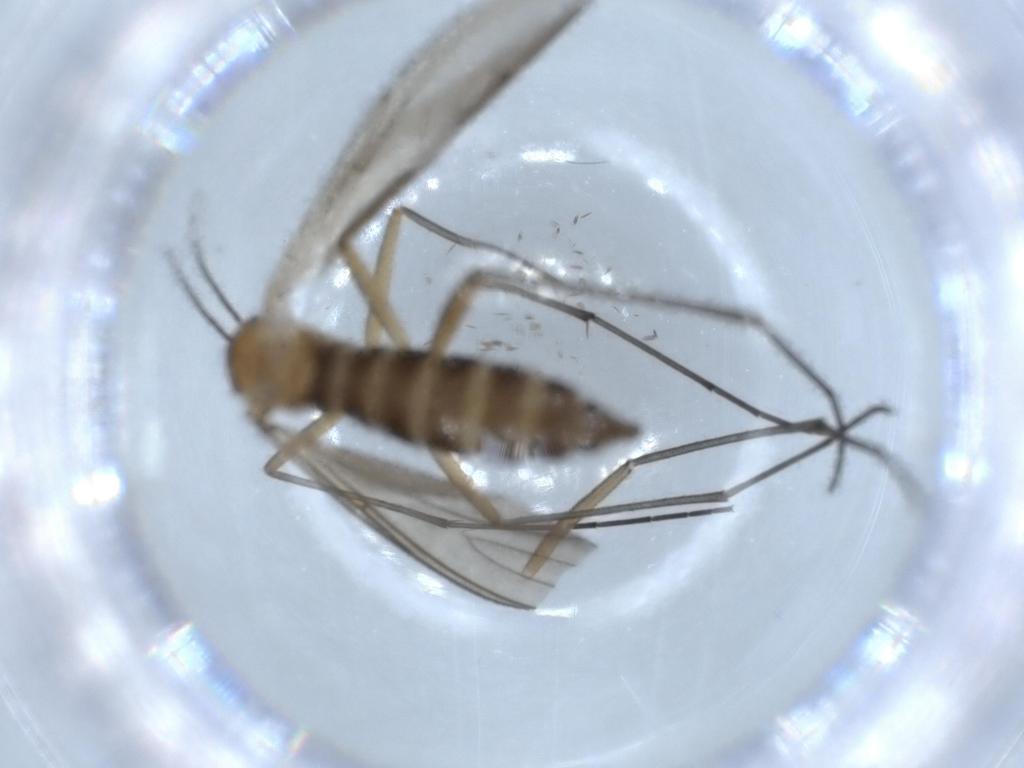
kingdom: Animalia
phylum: Arthropoda
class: Insecta
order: Diptera
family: Sciaridae
